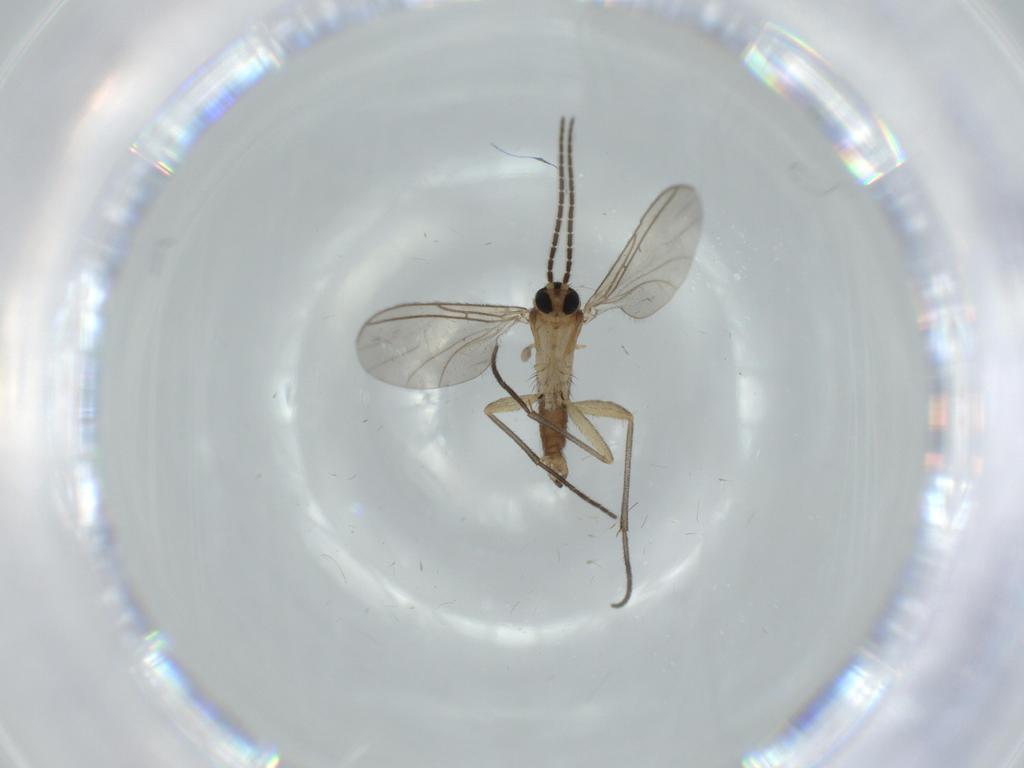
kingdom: Animalia
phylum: Arthropoda
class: Insecta
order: Diptera
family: Sciaridae
